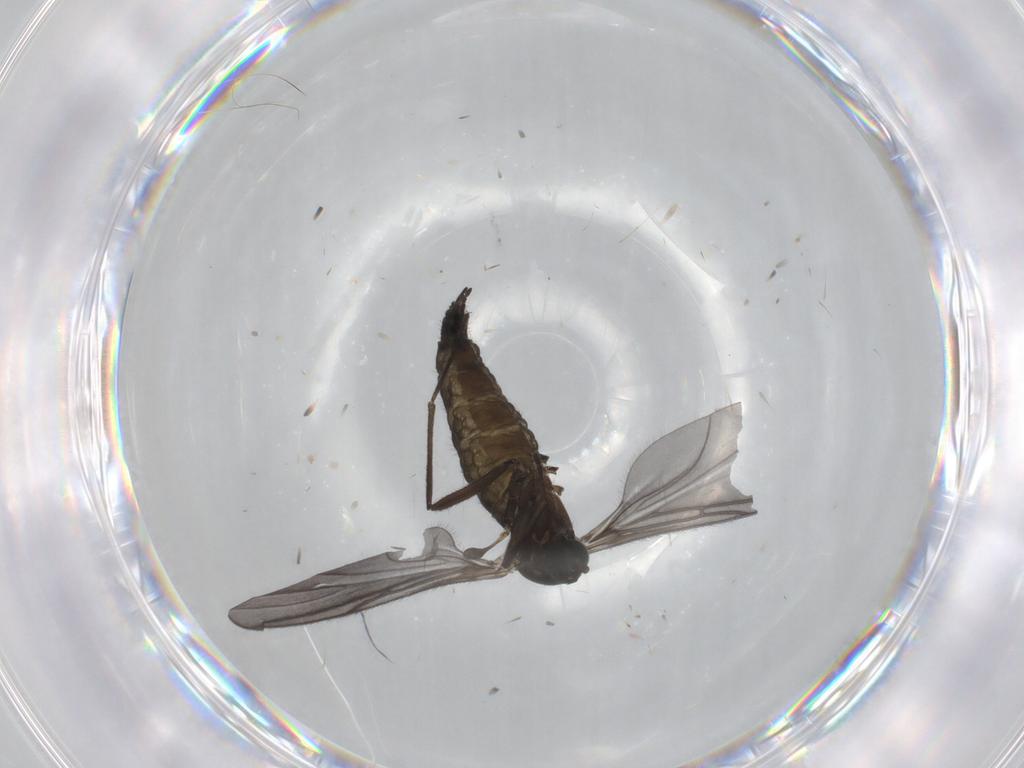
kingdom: Animalia
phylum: Arthropoda
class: Insecta
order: Diptera
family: Sciaridae
